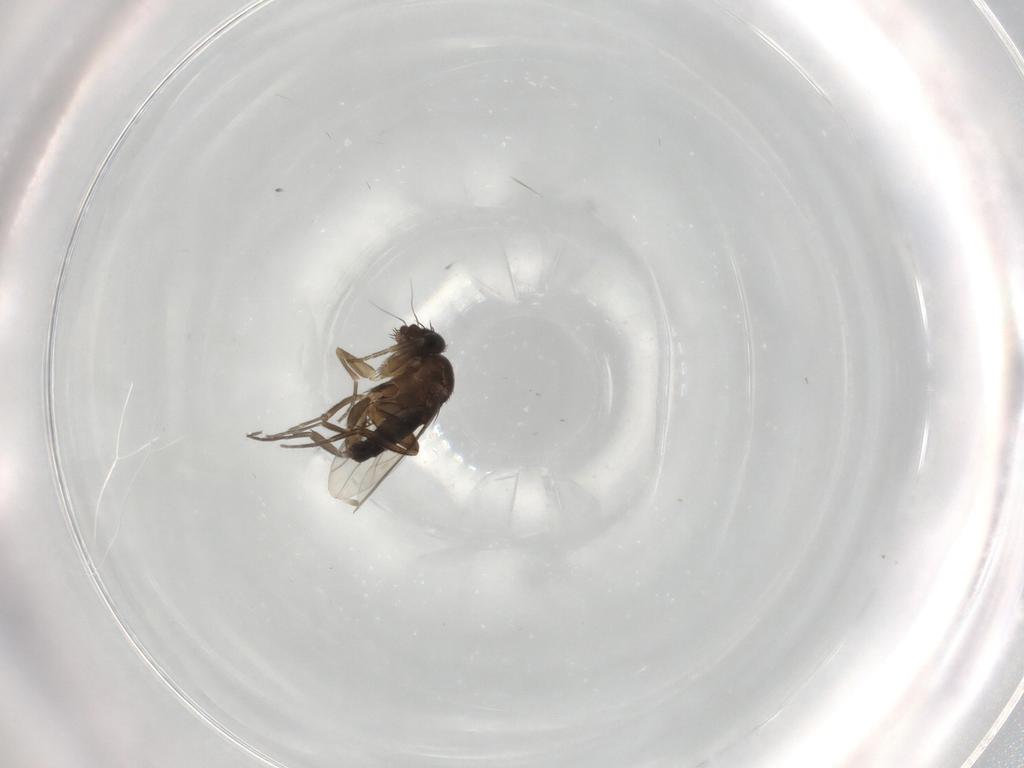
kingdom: Animalia
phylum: Arthropoda
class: Insecta
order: Diptera
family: Phoridae
